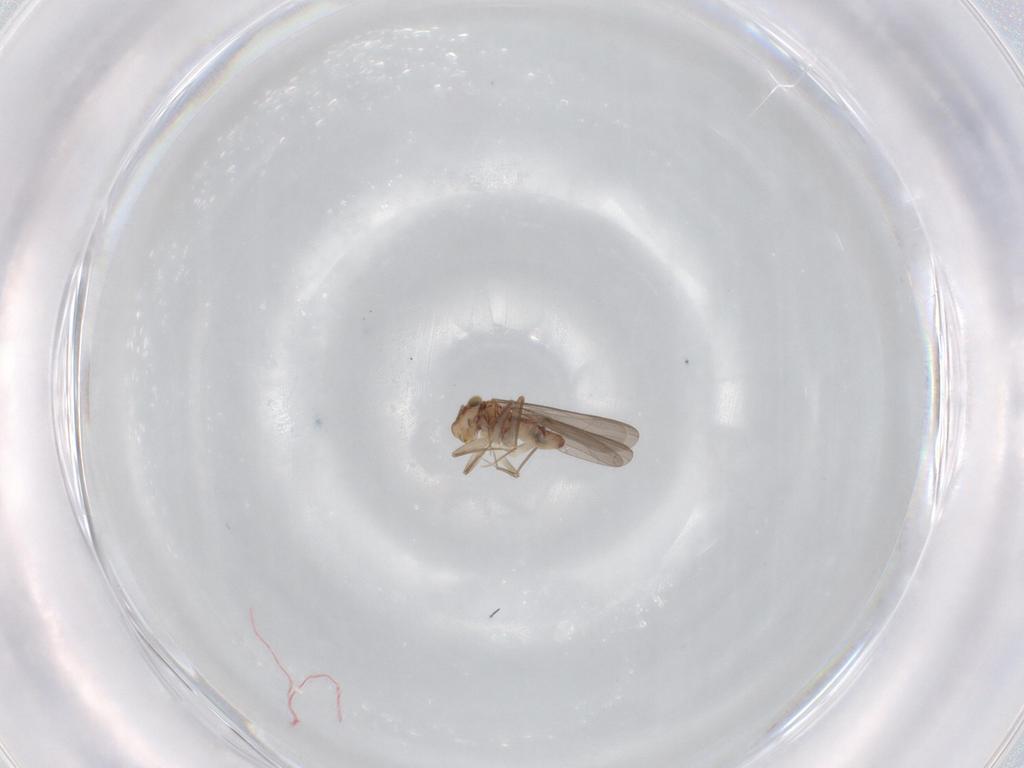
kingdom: Animalia
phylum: Arthropoda
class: Insecta
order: Psocodea
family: Lepidopsocidae
